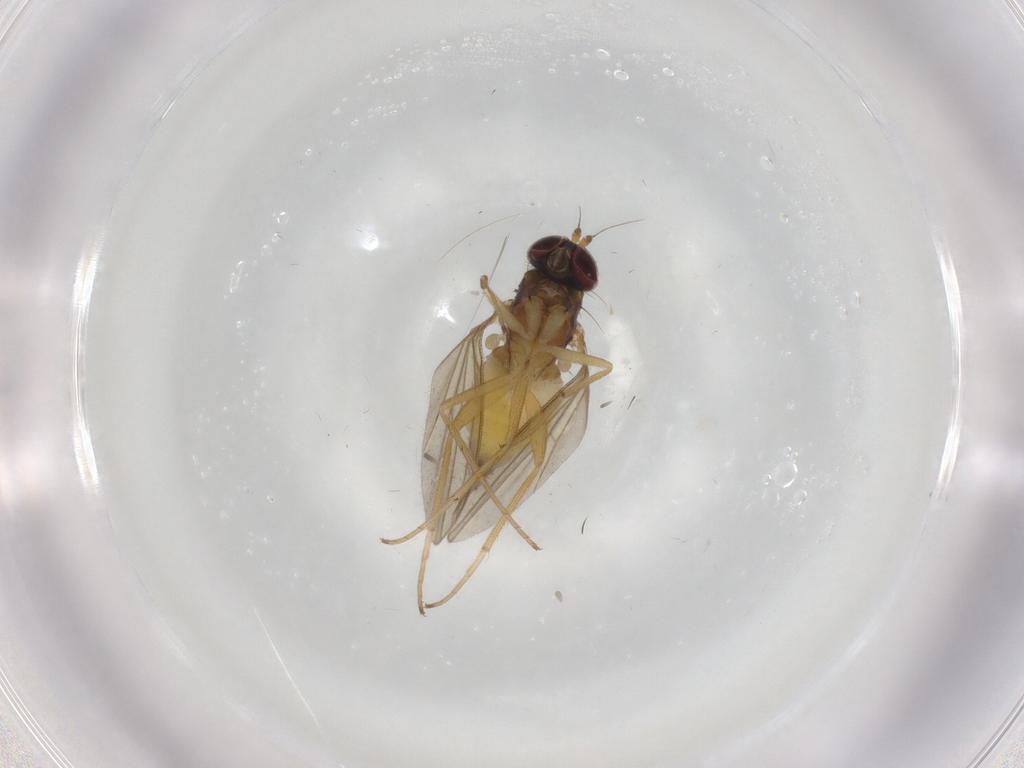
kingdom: Animalia
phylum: Arthropoda
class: Insecta
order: Diptera
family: Dolichopodidae
